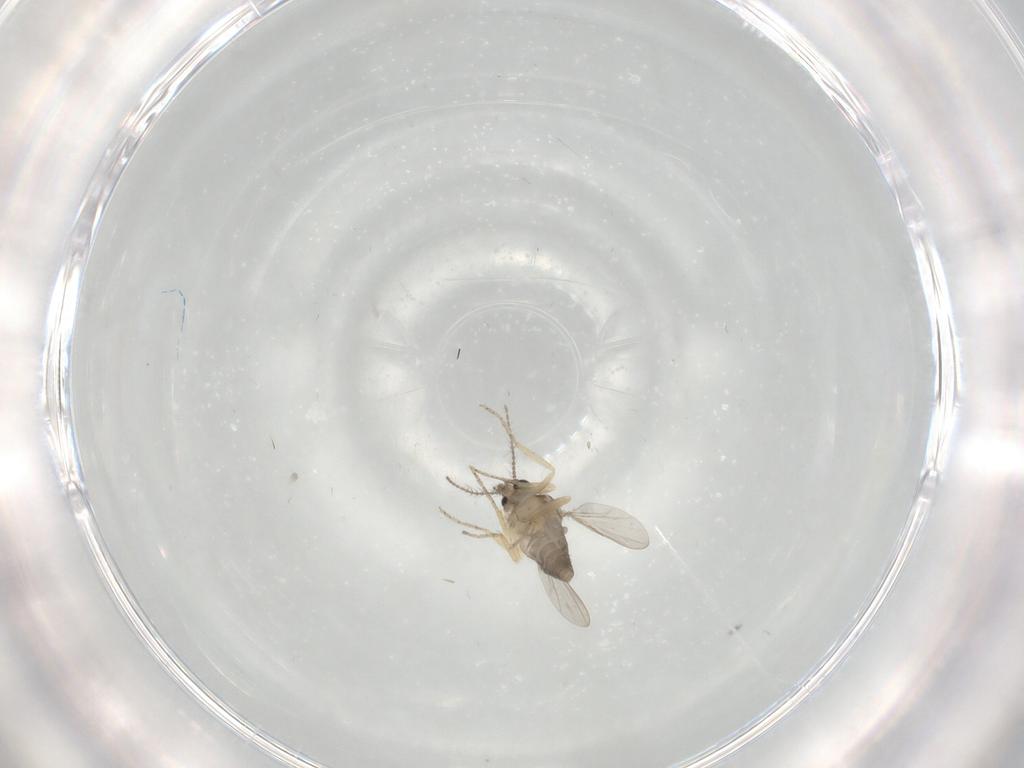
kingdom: Animalia
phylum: Arthropoda
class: Insecta
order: Diptera
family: Ceratopogonidae
